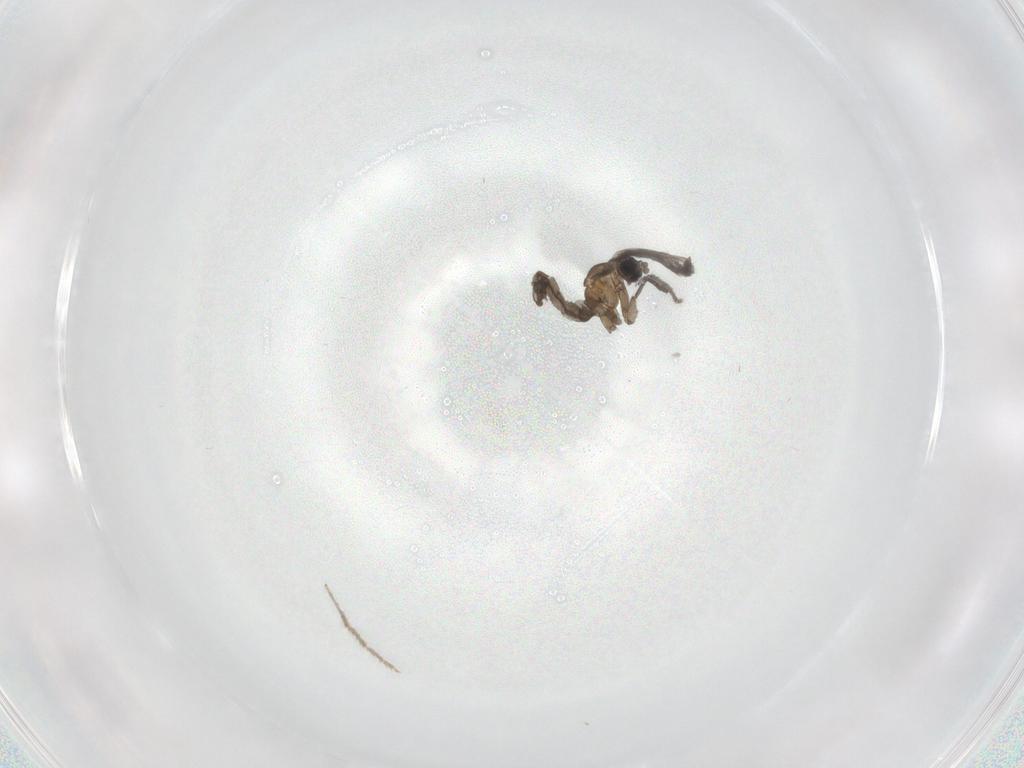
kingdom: Animalia
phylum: Arthropoda
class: Insecta
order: Diptera
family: Sciaridae
